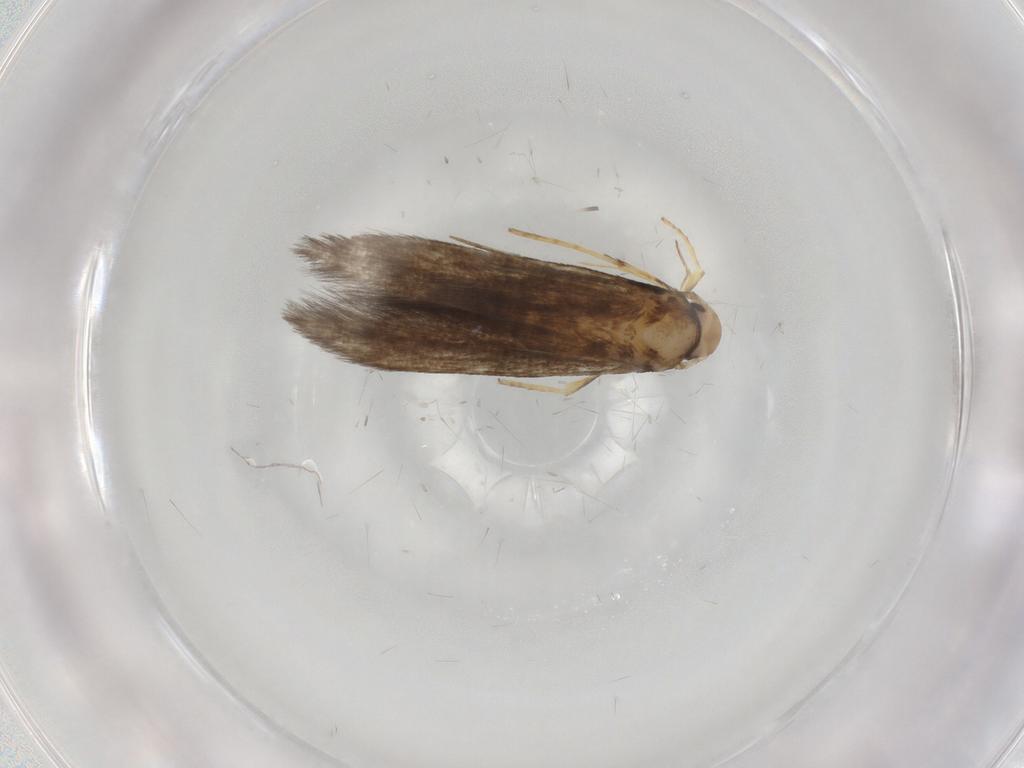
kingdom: Animalia
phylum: Arthropoda
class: Insecta
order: Lepidoptera
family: Stathmopodidae
